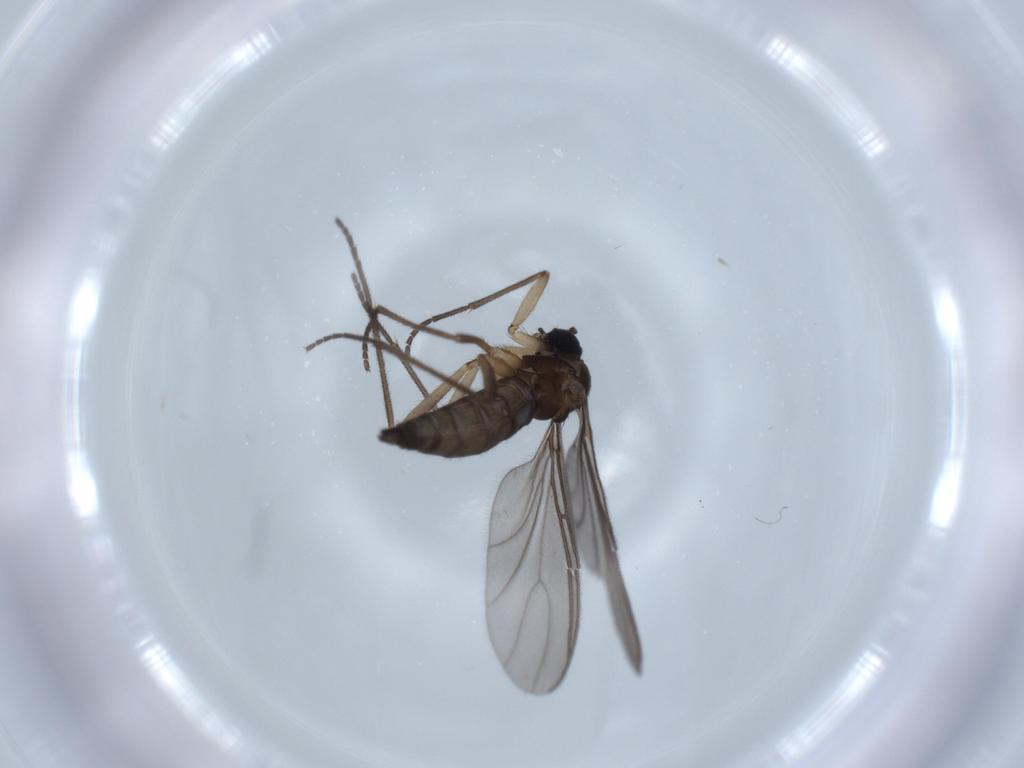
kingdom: Animalia
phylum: Arthropoda
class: Insecta
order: Diptera
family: Sciaridae
